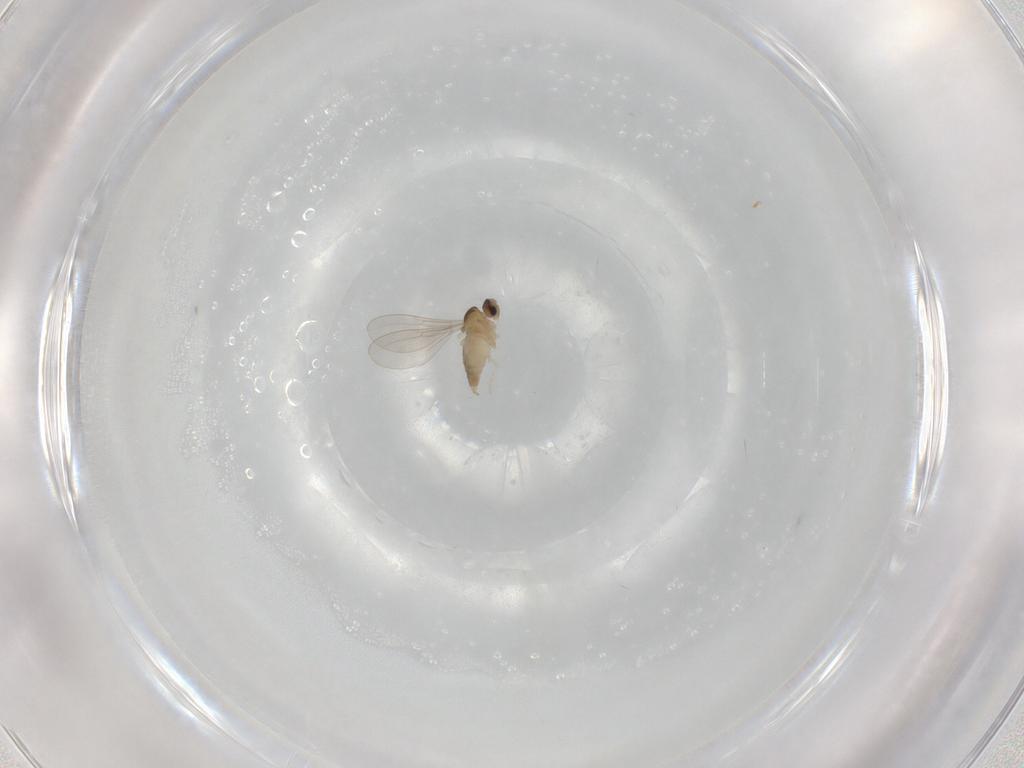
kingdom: Animalia
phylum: Arthropoda
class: Insecta
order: Diptera
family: Cecidomyiidae
